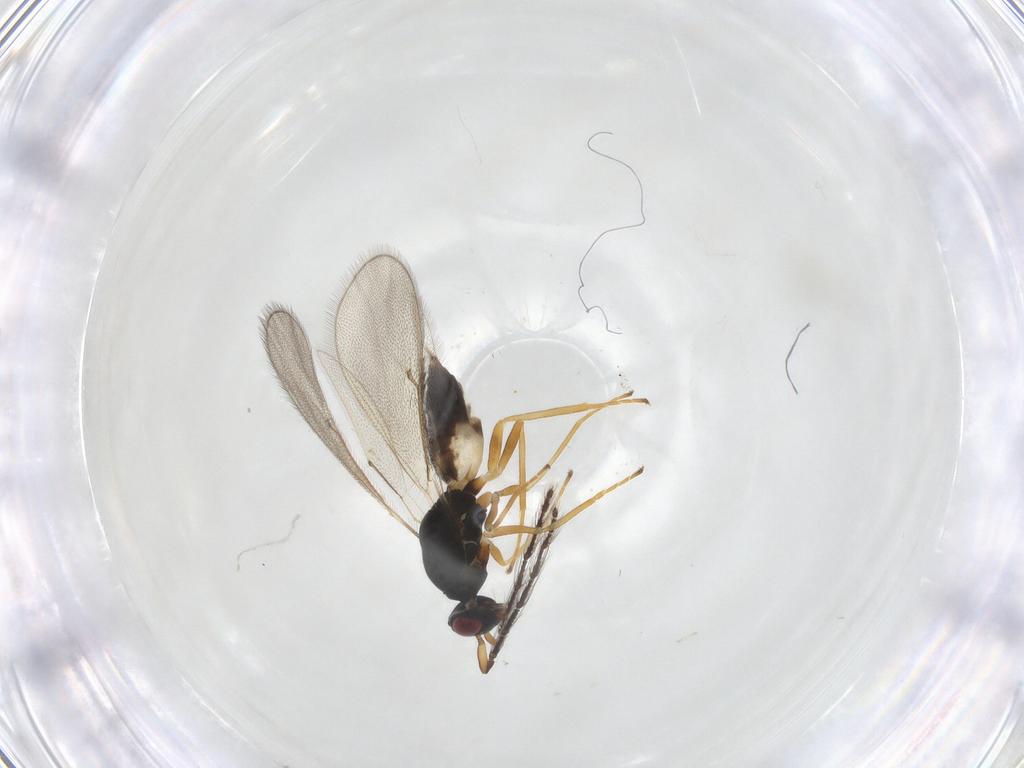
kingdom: Animalia
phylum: Arthropoda
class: Insecta
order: Hymenoptera
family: Eulophidae
